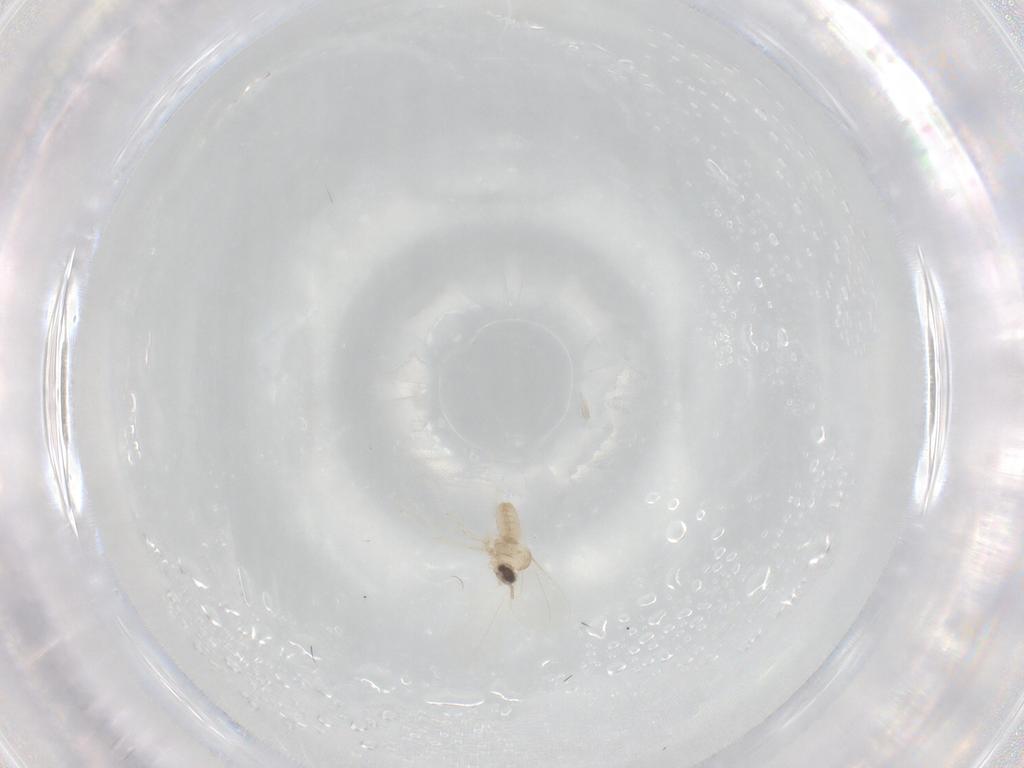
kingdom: Animalia
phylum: Arthropoda
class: Insecta
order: Diptera
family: Cecidomyiidae
